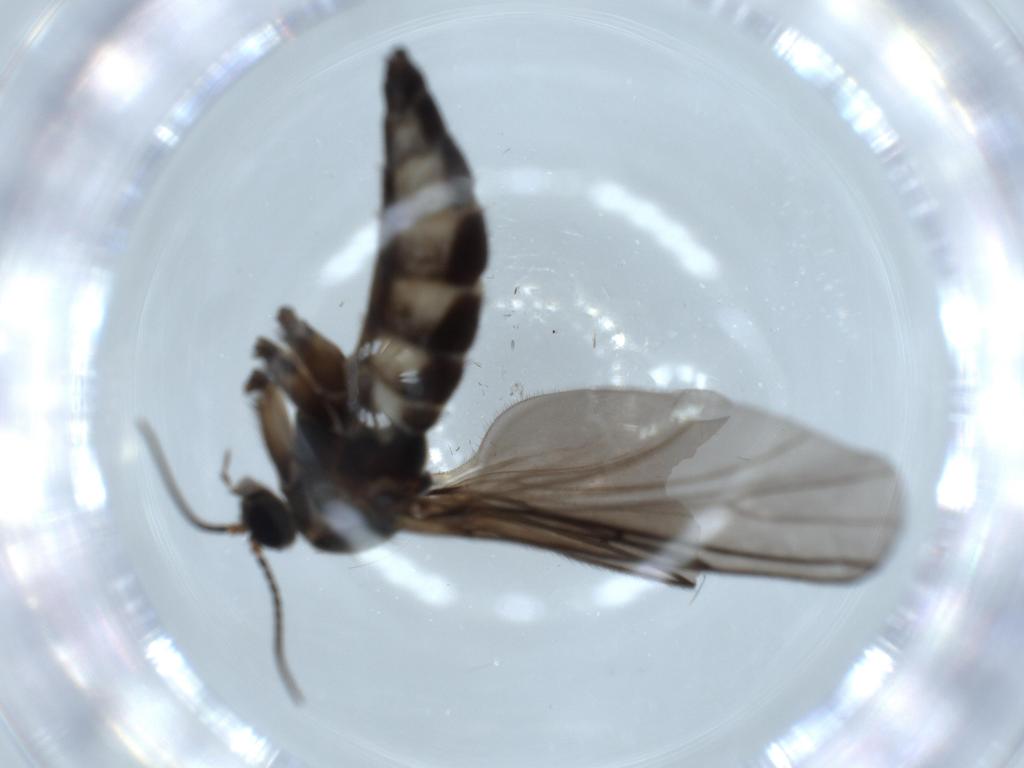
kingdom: Animalia
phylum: Arthropoda
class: Insecta
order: Diptera
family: Sciaridae
